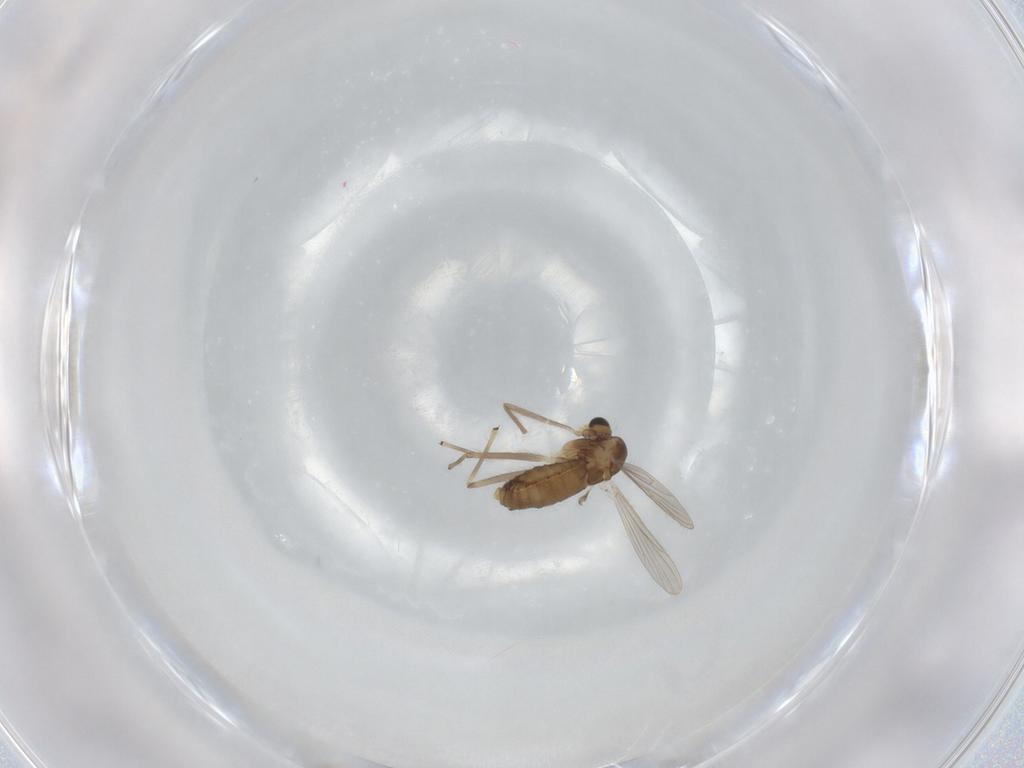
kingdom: Animalia
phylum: Arthropoda
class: Insecta
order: Diptera
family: Chironomidae
